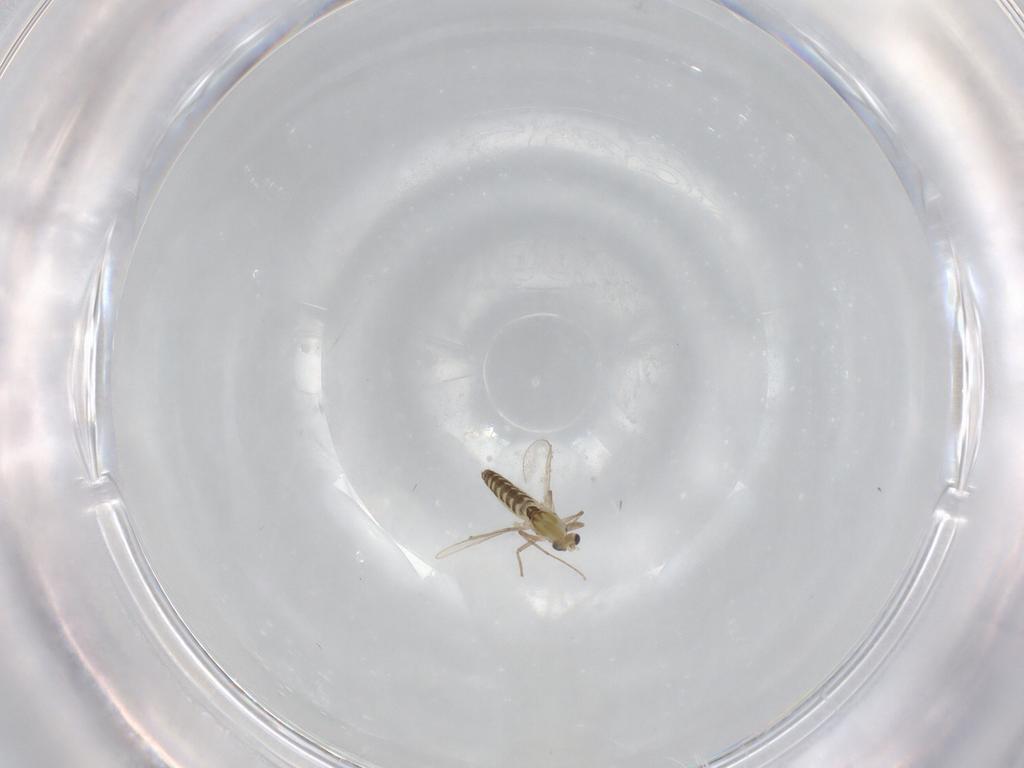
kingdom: Animalia
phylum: Arthropoda
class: Insecta
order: Diptera
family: Chironomidae
